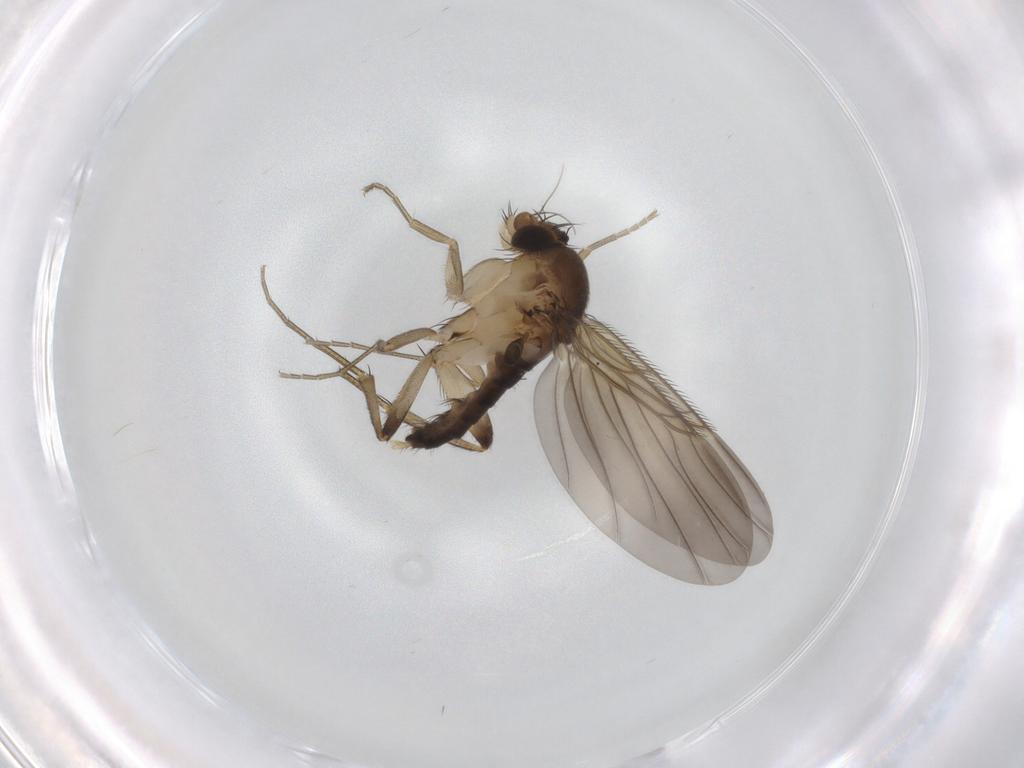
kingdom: Animalia
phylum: Arthropoda
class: Insecta
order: Diptera
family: Phoridae
